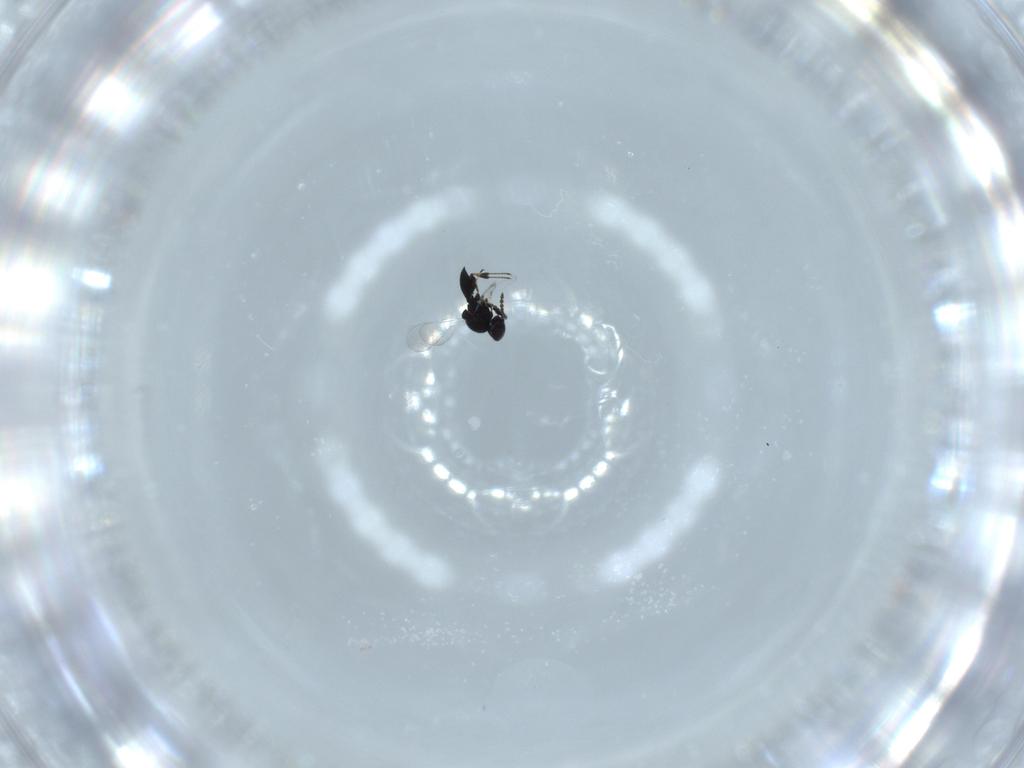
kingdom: Animalia
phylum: Arthropoda
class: Insecta
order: Hymenoptera
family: Platygastridae
